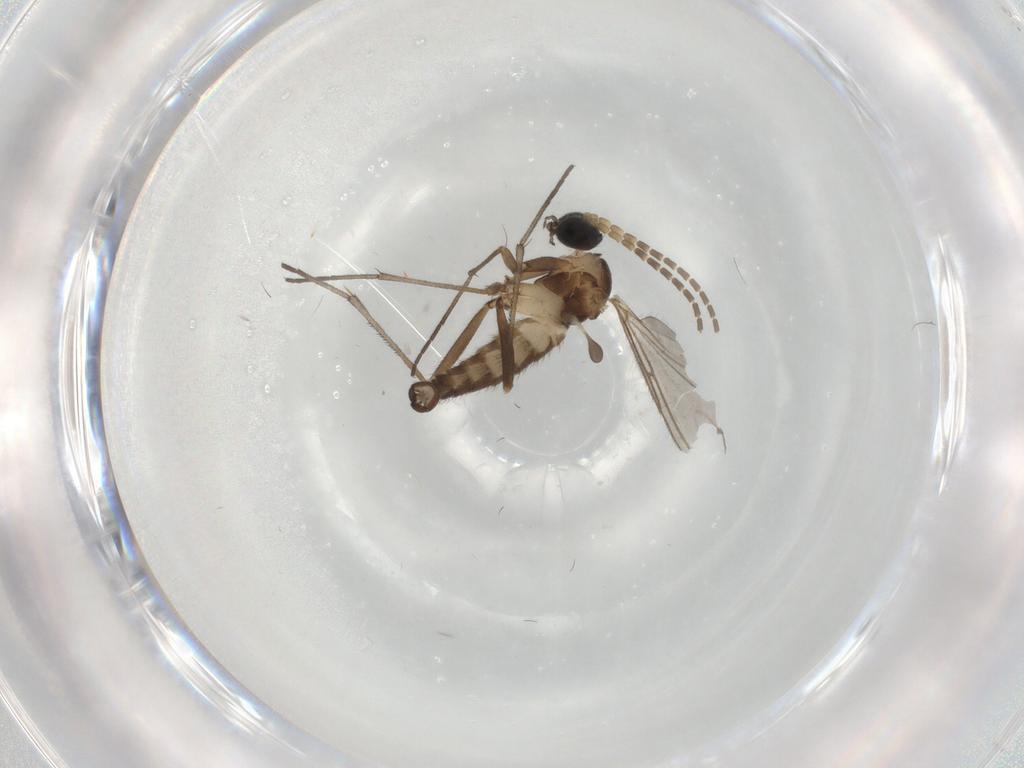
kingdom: Animalia
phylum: Arthropoda
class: Insecta
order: Diptera
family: Sciaridae
